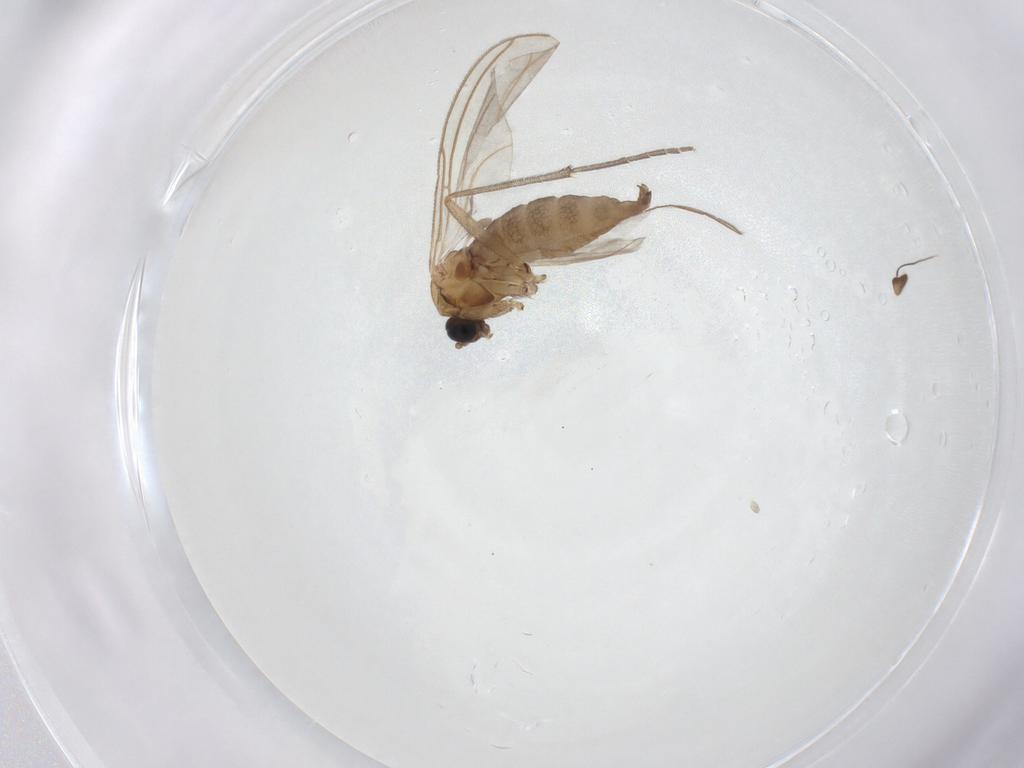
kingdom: Animalia
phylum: Arthropoda
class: Insecta
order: Diptera
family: Sciaridae
